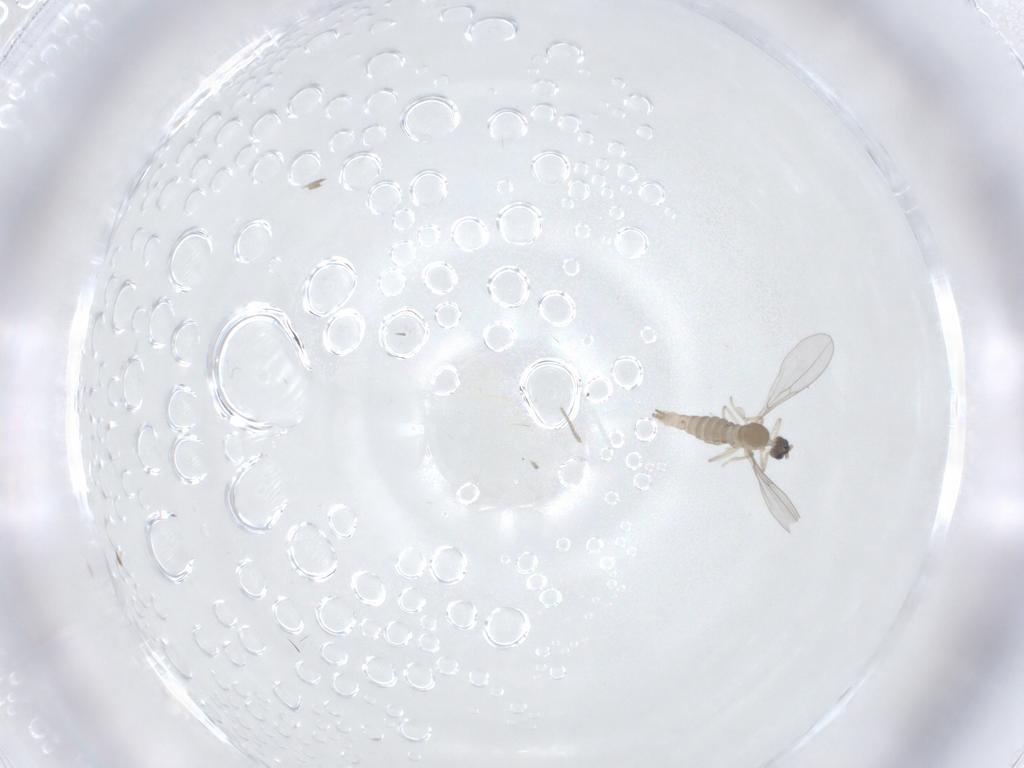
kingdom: Animalia
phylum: Arthropoda
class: Insecta
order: Diptera
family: Cecidomyiidae
